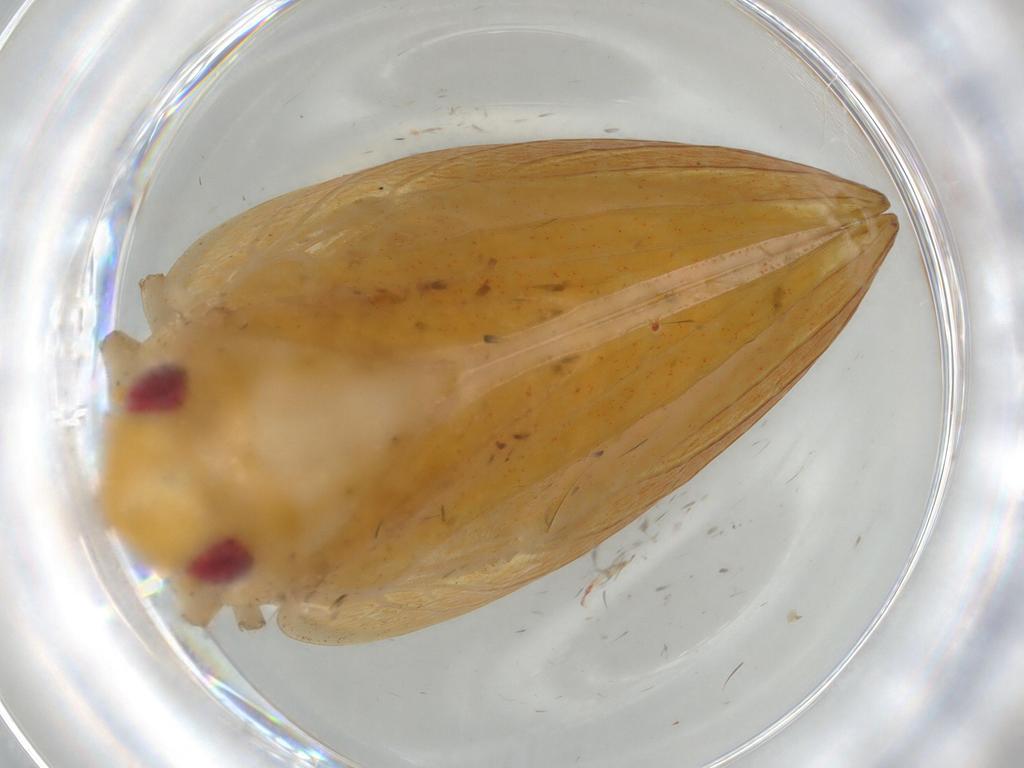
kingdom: Animalia
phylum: Arthropoda
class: Insecta
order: Hemiptera
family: Acanaloniidae
